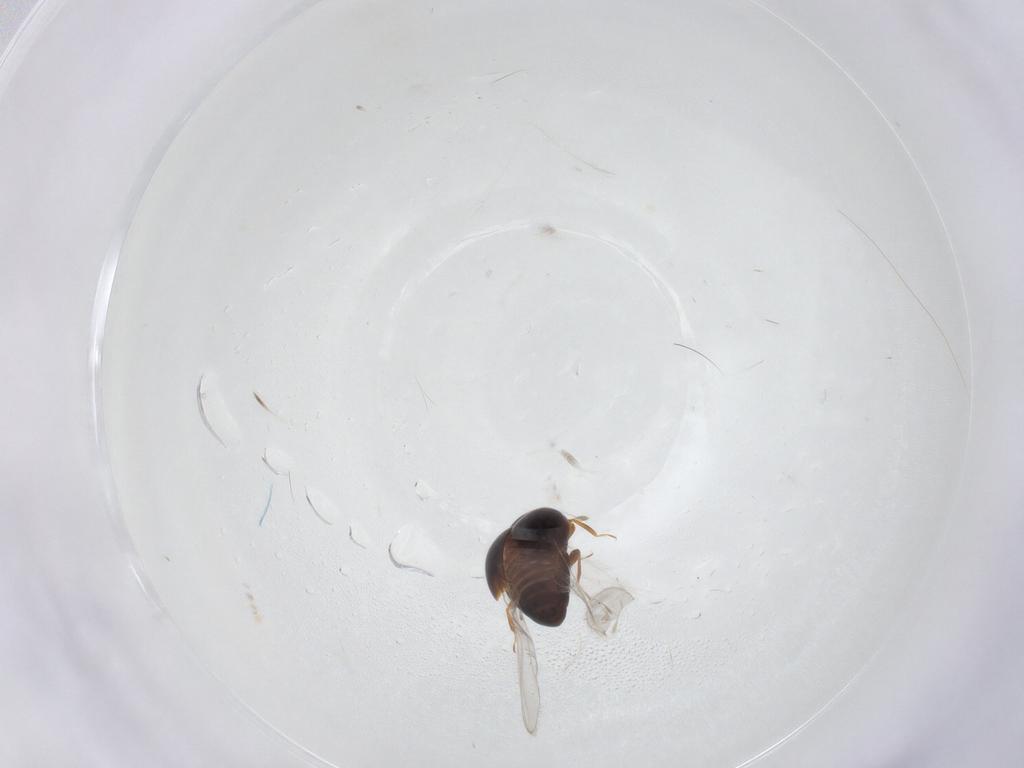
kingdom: Animalia
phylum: Arthropoda
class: Insecta
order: Coleoptera
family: Corylophidae
